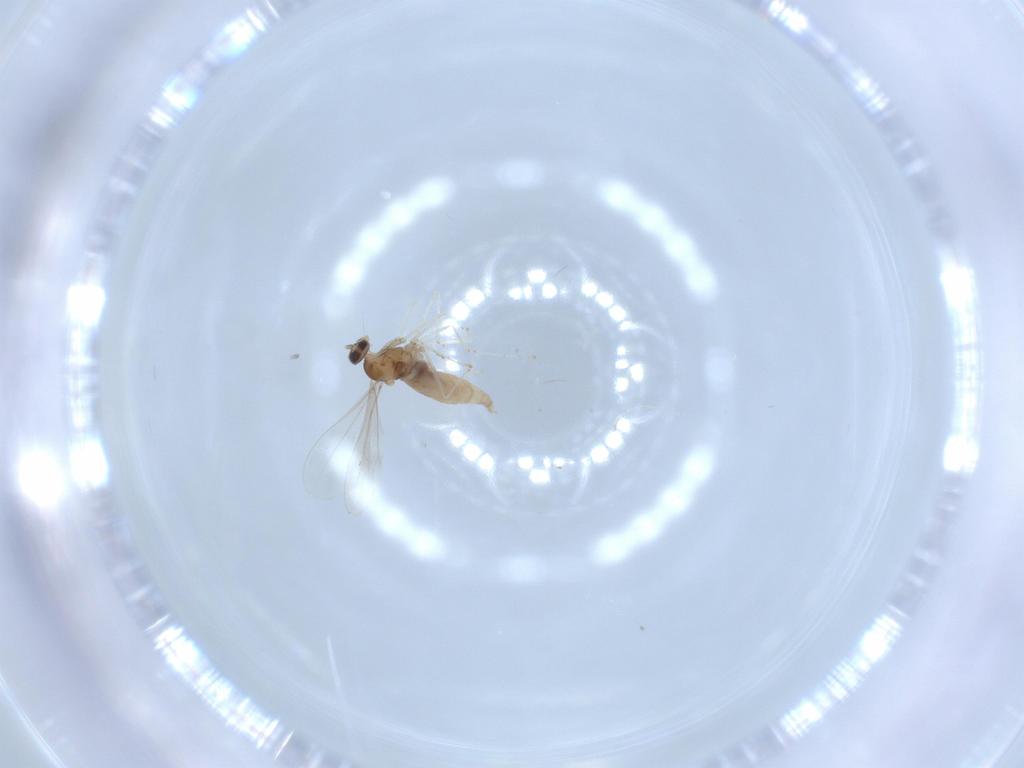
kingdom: Animalia
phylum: Arthropoda
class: Insecta
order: Diptera
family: Cecidomyiidae
